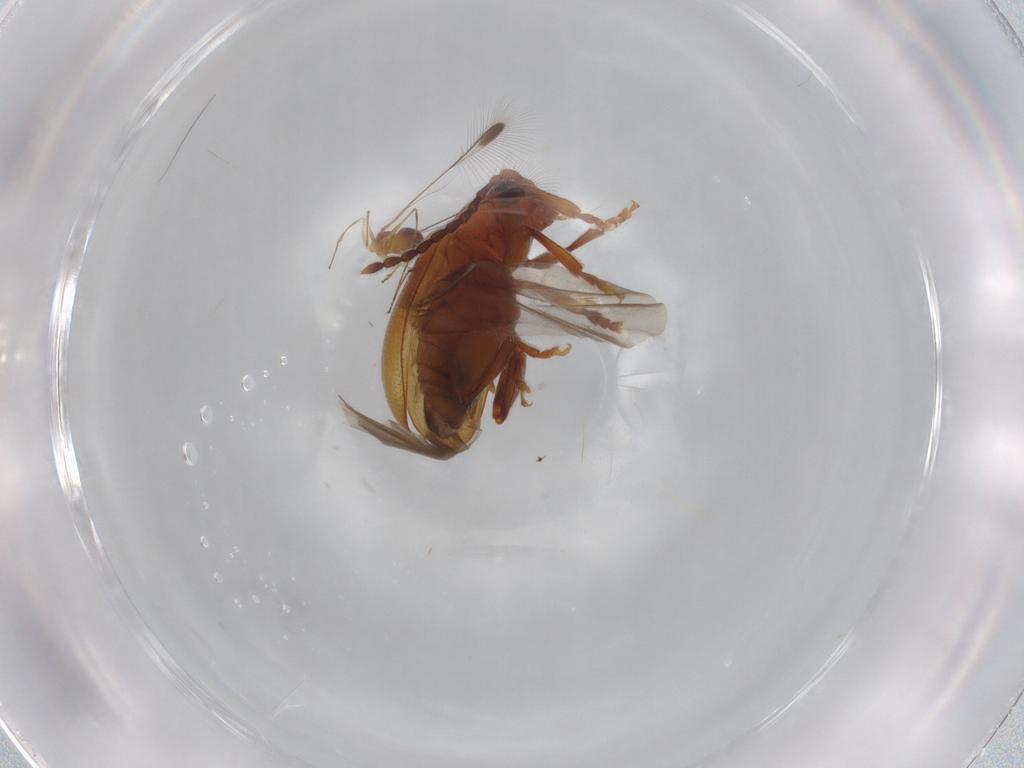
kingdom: Animalia
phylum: Arthropoda
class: Insecta
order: Coleoptera
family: Chrysomelidae
